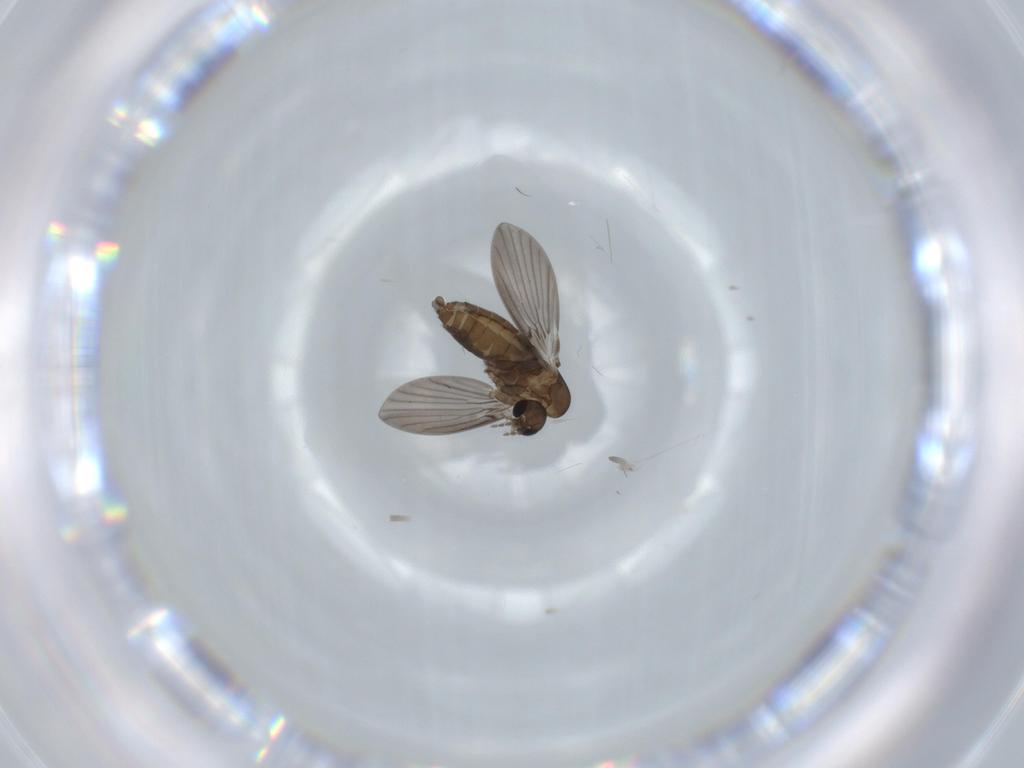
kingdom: Animalia
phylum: Arthropoda
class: Insecta
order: Diptera
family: Psychodidae
